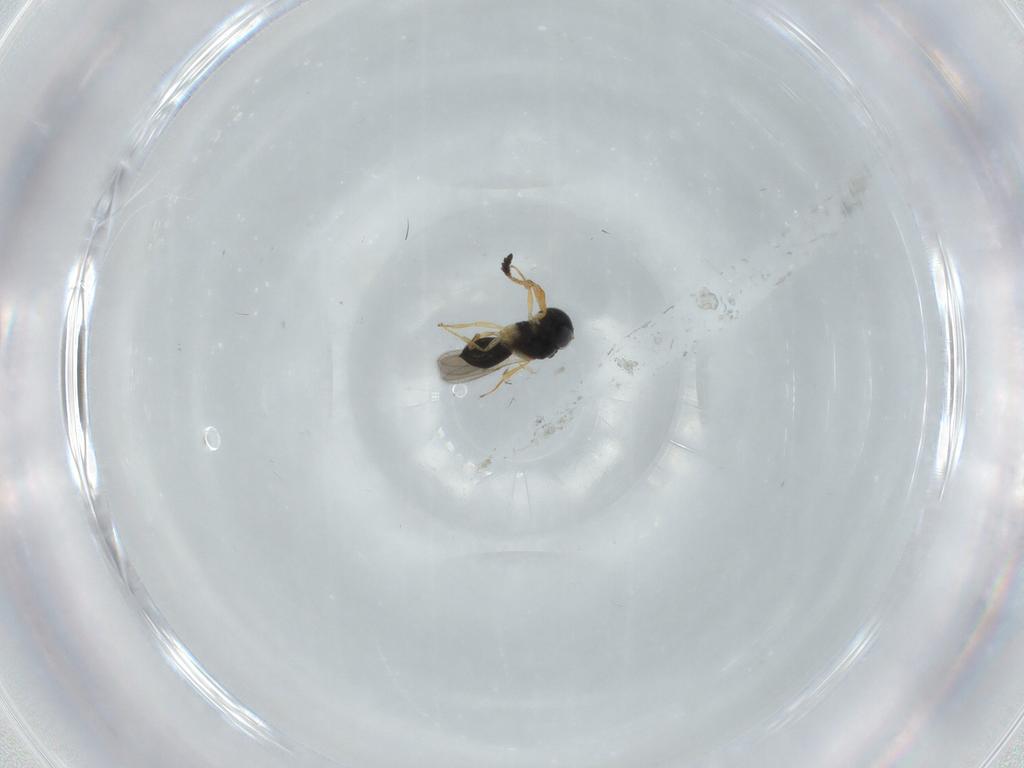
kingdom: Animalia
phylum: Arthropoda
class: Insecta
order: Hymenoptera
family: Scelionidae
